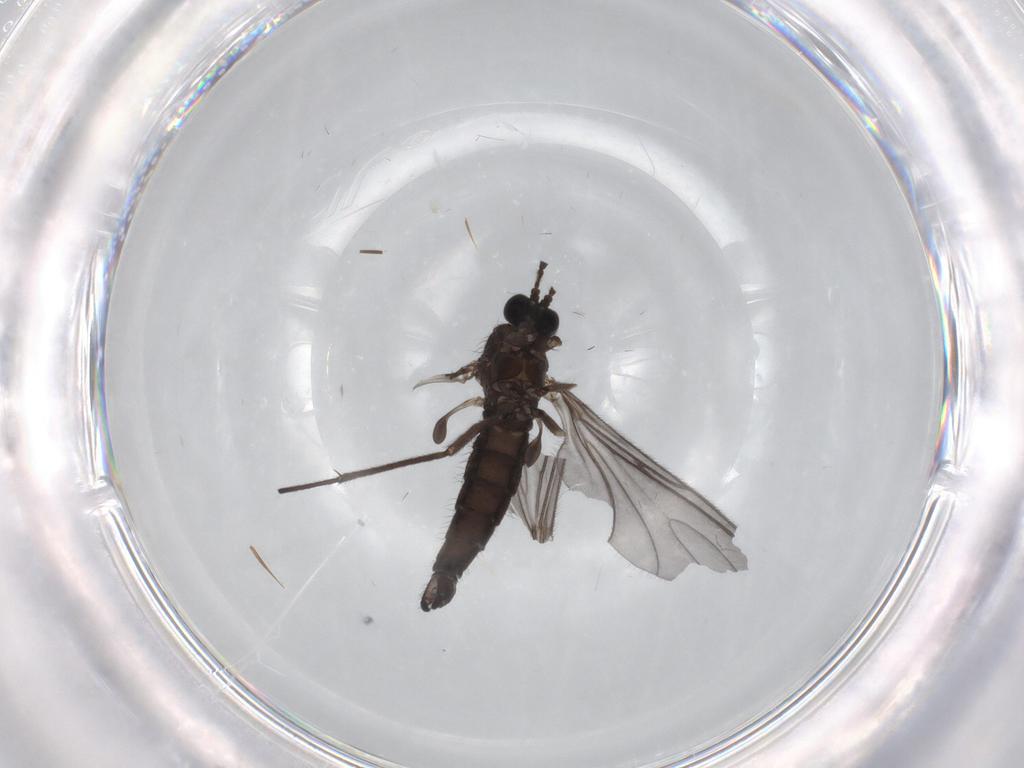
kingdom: Animalia
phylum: Arthropoda
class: Insecta
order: Diptera
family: Sciaridae
